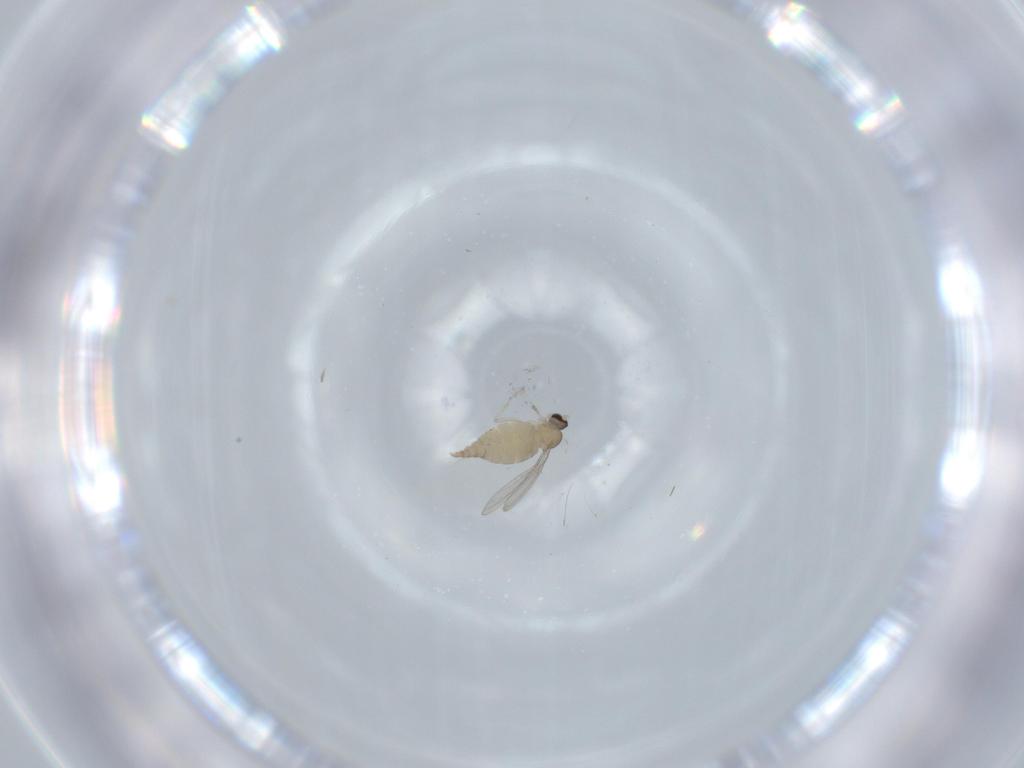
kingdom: Animalia
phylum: Arthropoda
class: Insecta
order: Diptera
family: Cecidomyiidae
